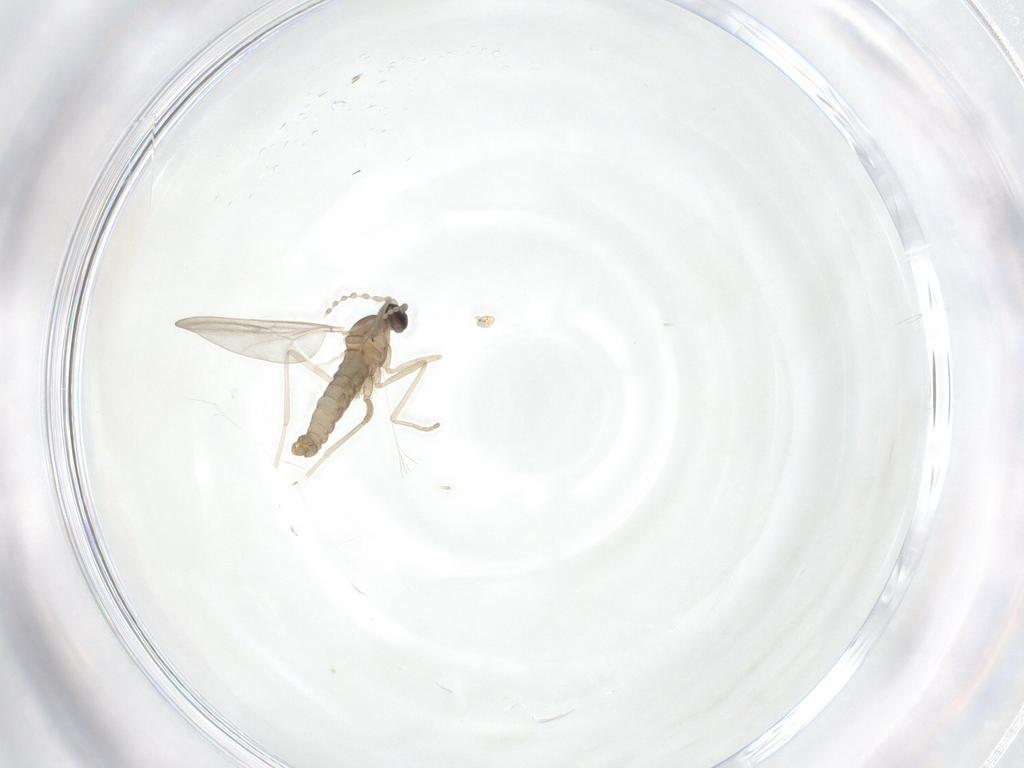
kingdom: Animalia
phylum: Arthropoda
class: Insecta
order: Diptera
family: Cecidomyiidae
